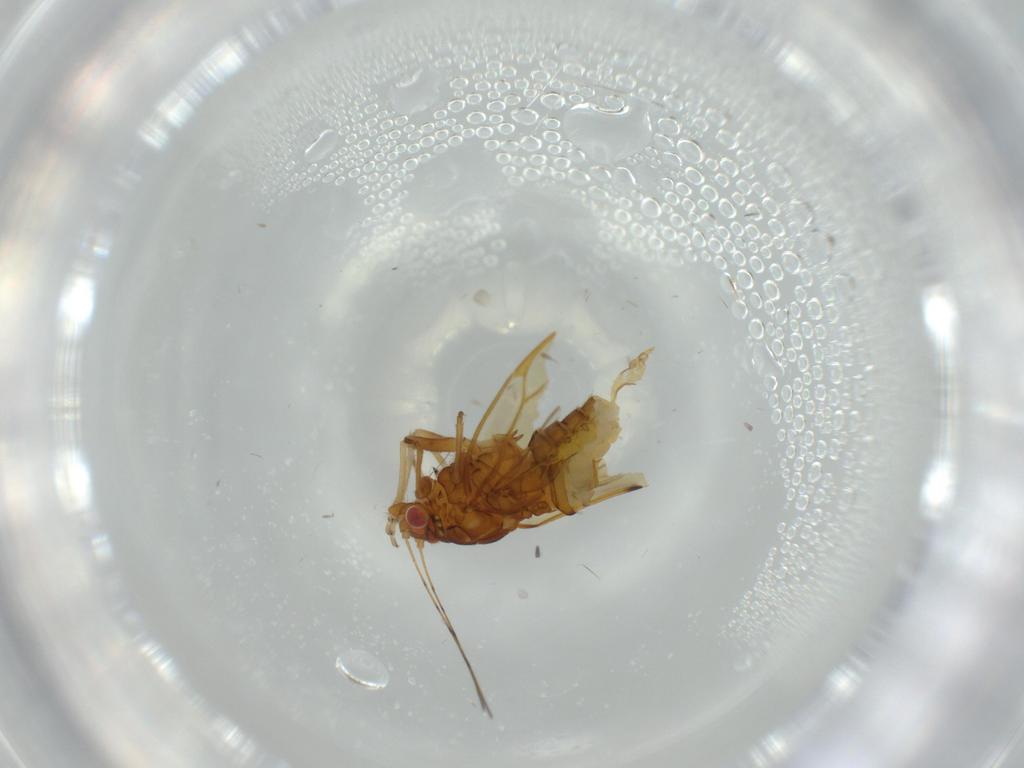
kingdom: Animalia
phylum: Arthropoda
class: Insecta
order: Hemiptera
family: Psylloidea_incertae_sedis
